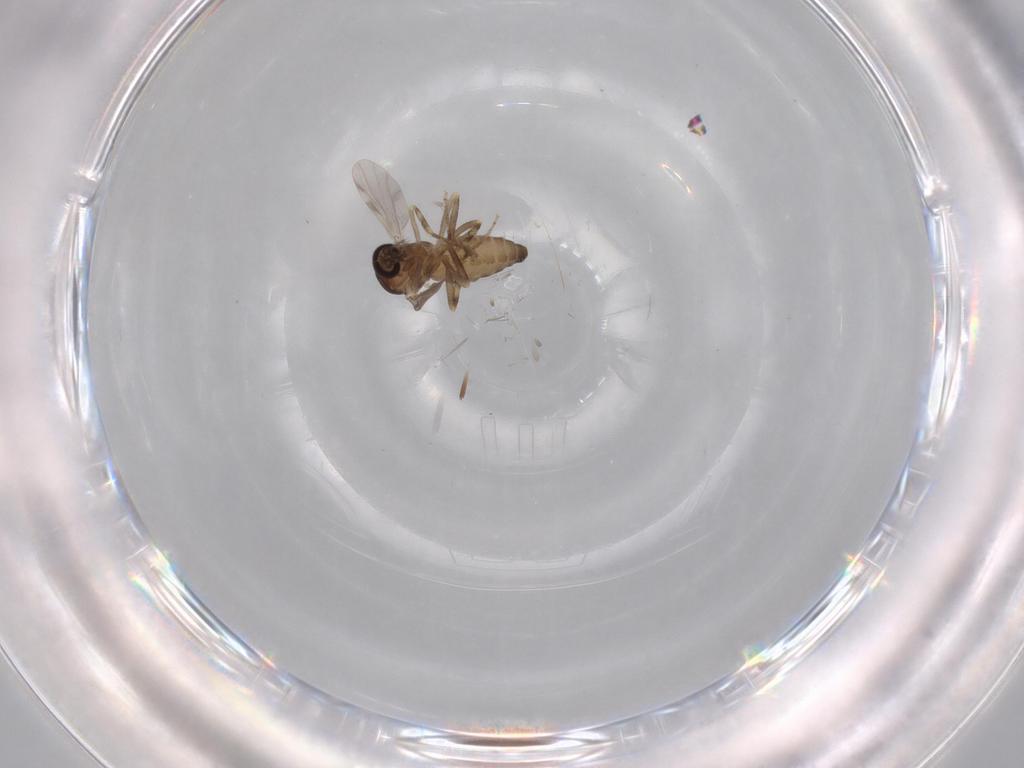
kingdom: Animalia
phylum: Arthropoda
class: Insecta
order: Diptera
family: Ceratopogonidae
